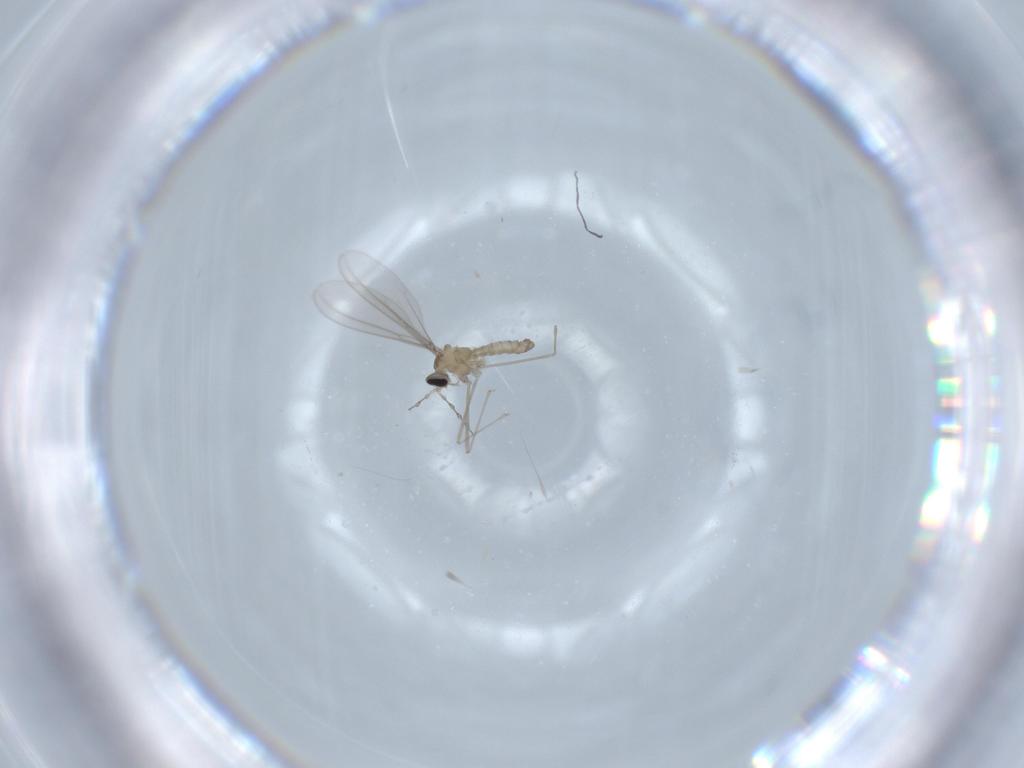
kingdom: Animalia
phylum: Arthropoda
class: Insecta
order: Diptera
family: Cecidomyiidae
